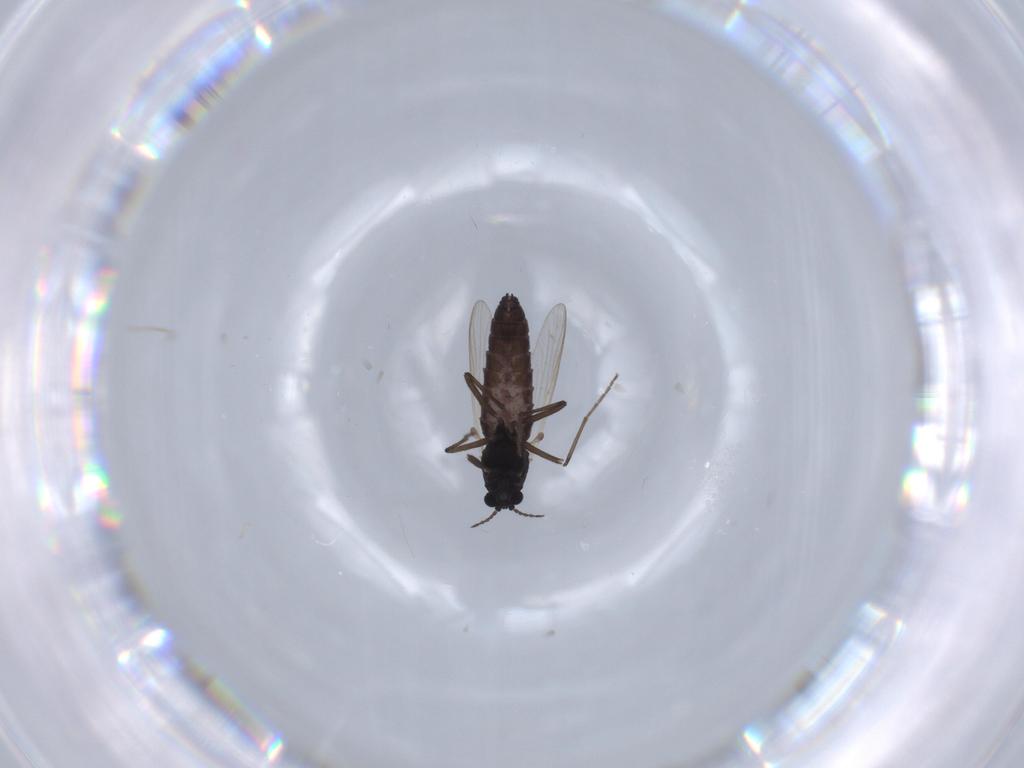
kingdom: Animalia
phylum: Arthropoda
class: Insecta
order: Diptera
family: Chironomidae
